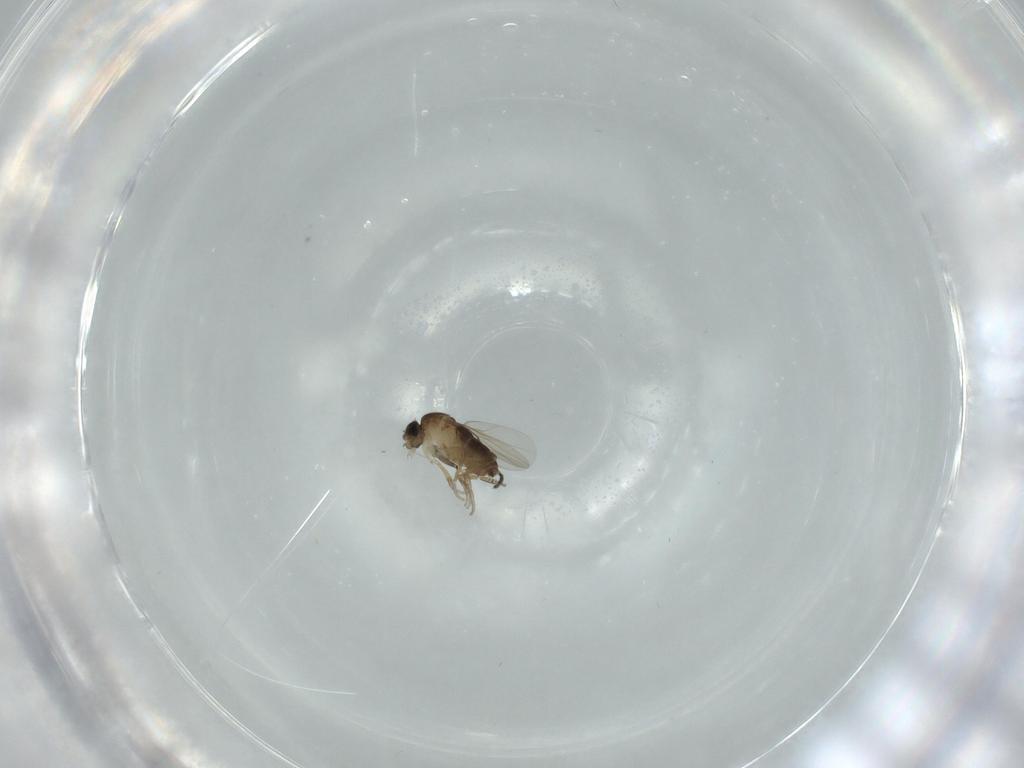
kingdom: Animalia
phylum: Arthropoda
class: Insecta
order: Diptera
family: Phoridae
